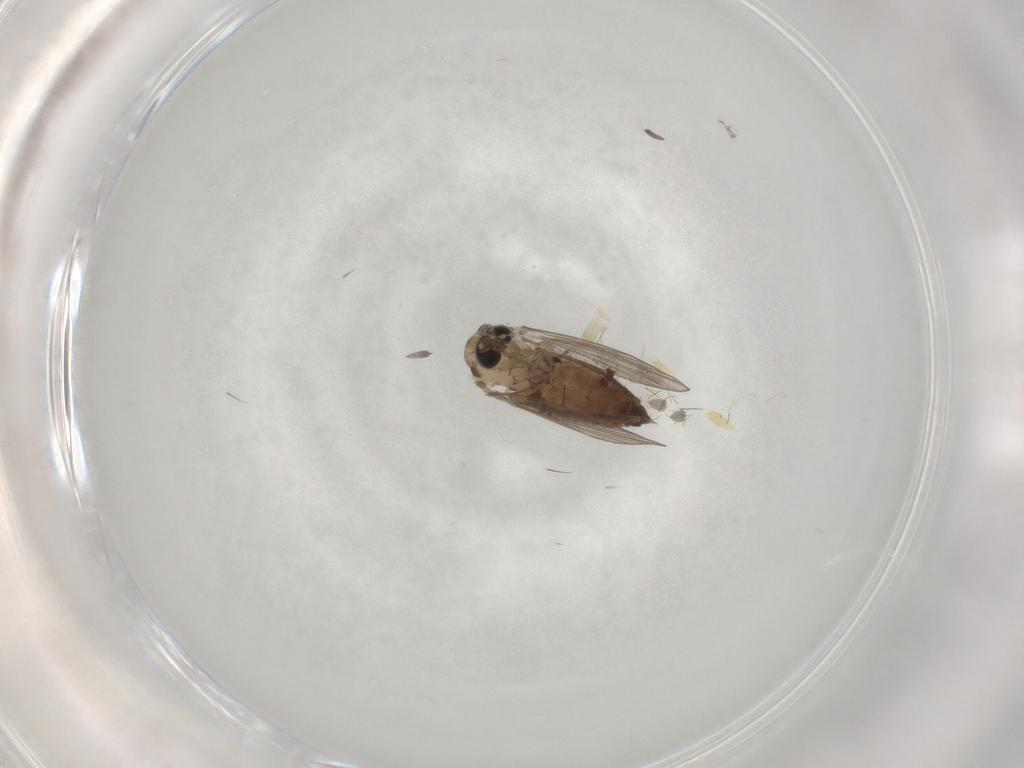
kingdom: Animalia
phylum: Arthropoda
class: Insecta
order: Diptera
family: Psychodidae
